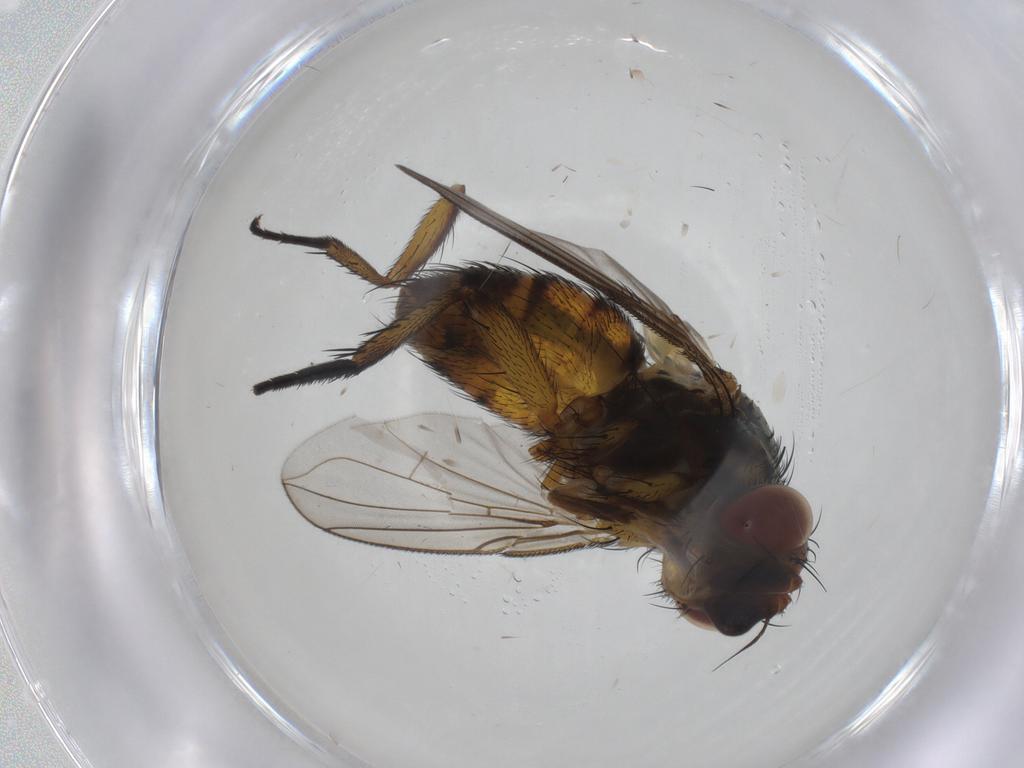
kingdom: Animalia
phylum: Arthropoda
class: Insecta
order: Diptera
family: Tachinidae
